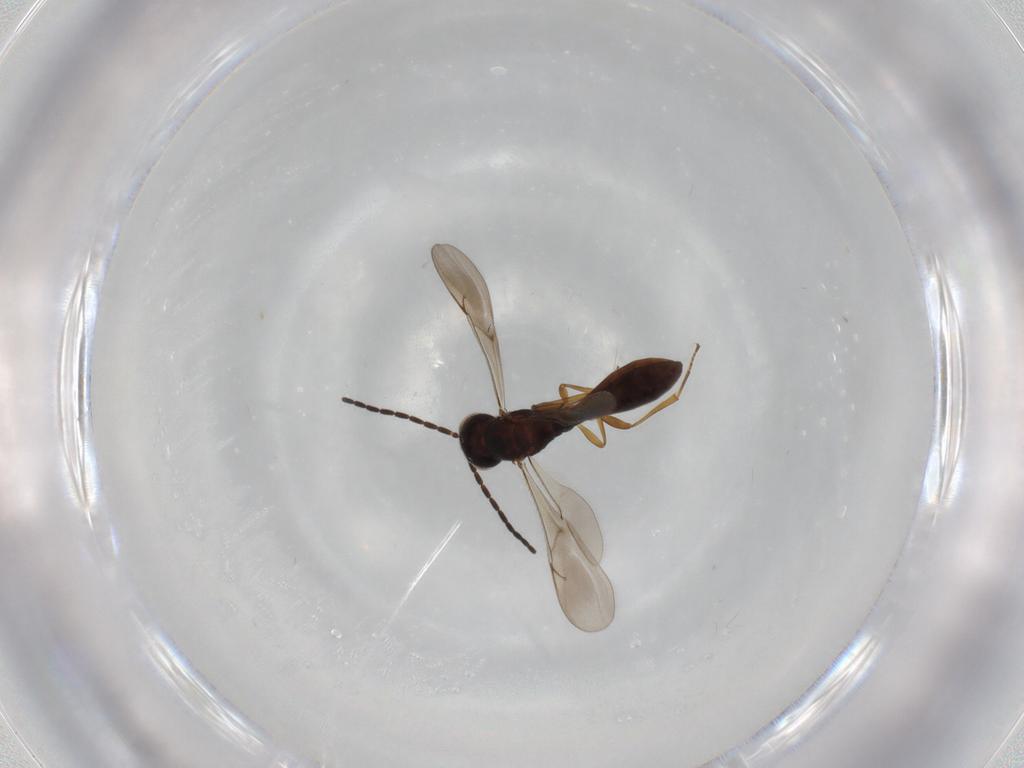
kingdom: Animalia
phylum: Arthropoda
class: Insecta
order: Hymenoptera
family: Scelionidae
